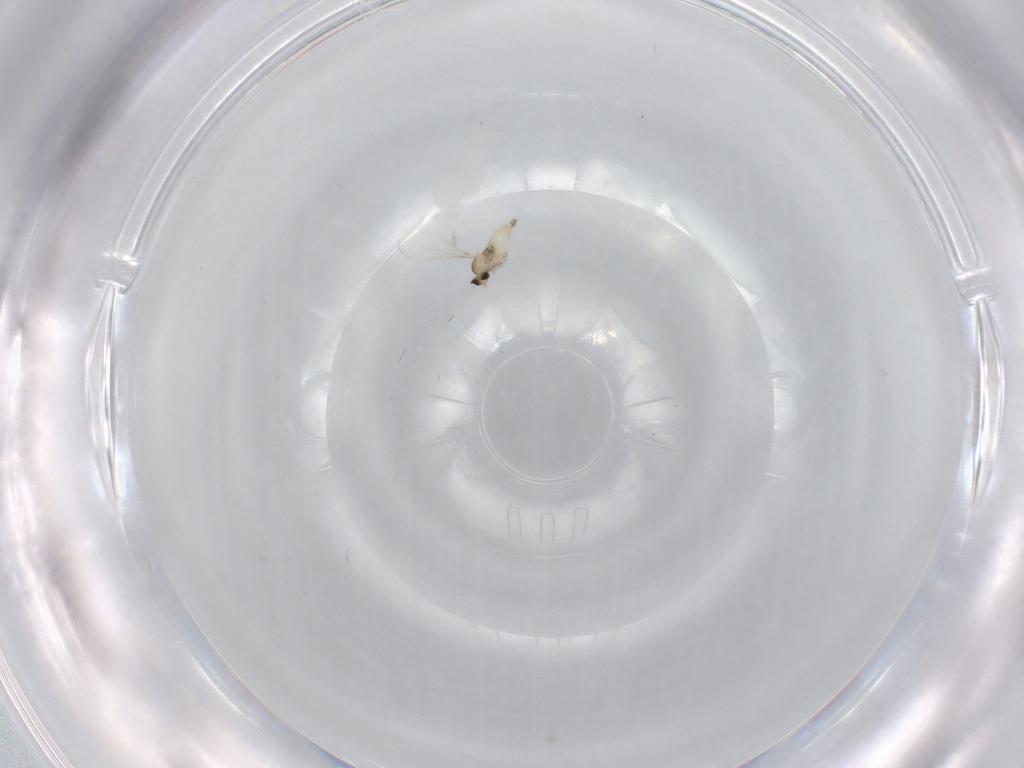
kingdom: Animalia
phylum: Arthropoda
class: Insecta
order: Diptera
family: Cecidomyiidae
